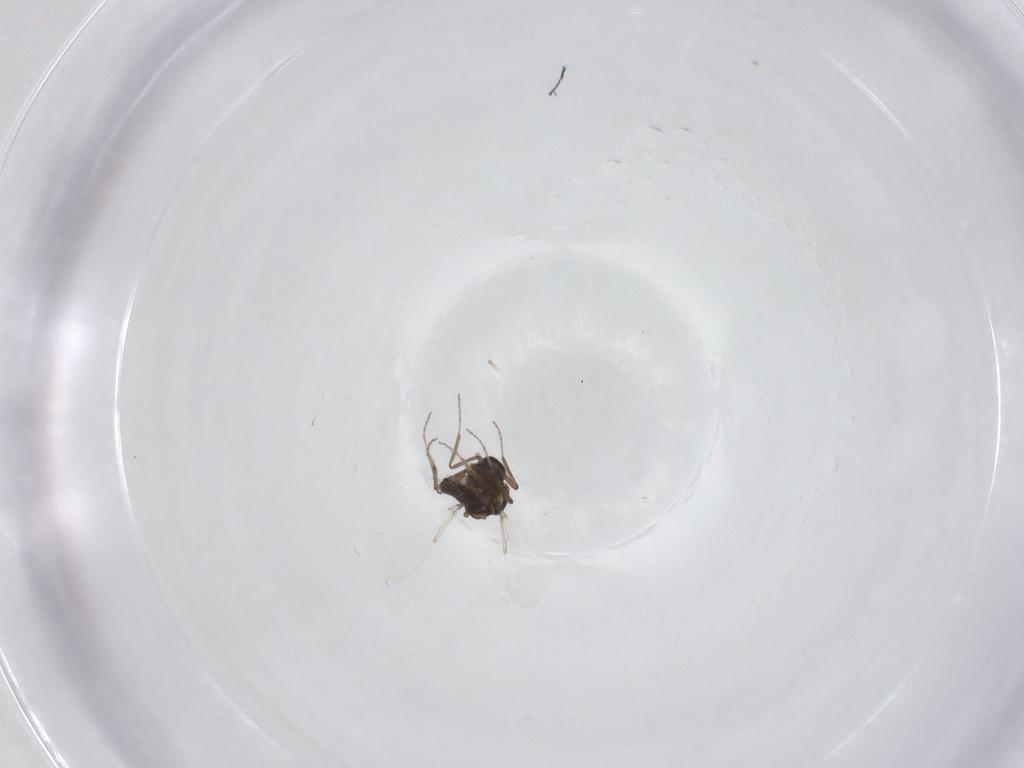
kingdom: Animalia
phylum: Arthropoda
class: Insecta
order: Diptera
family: Ceratopogonidae
